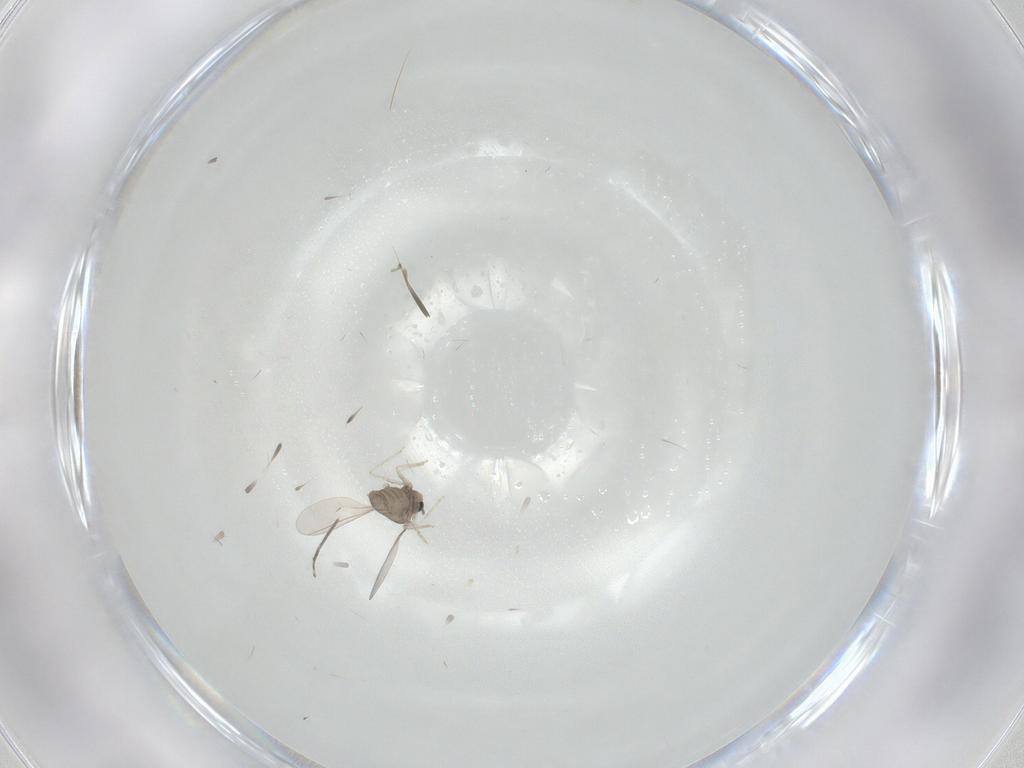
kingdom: Animalia
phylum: Arthropoda
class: Insecta
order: Diptera
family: Cecidomyiidae
